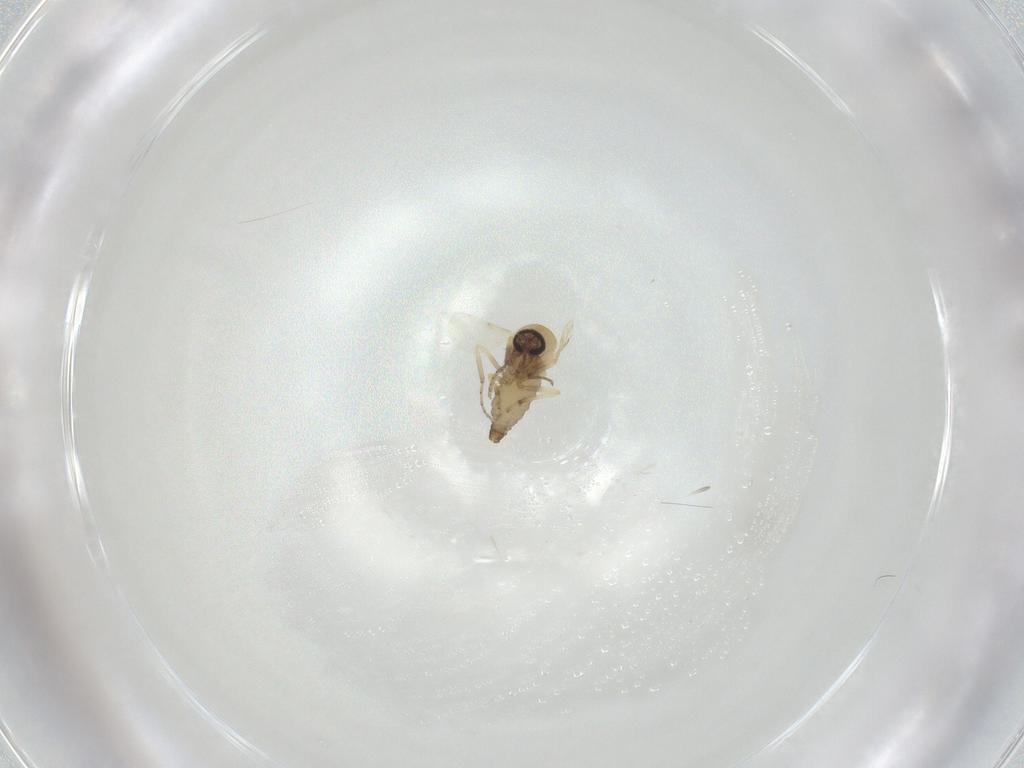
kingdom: Animalia
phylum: Arthropoda
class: Insecta
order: Diptera
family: Ceratopogonidae
